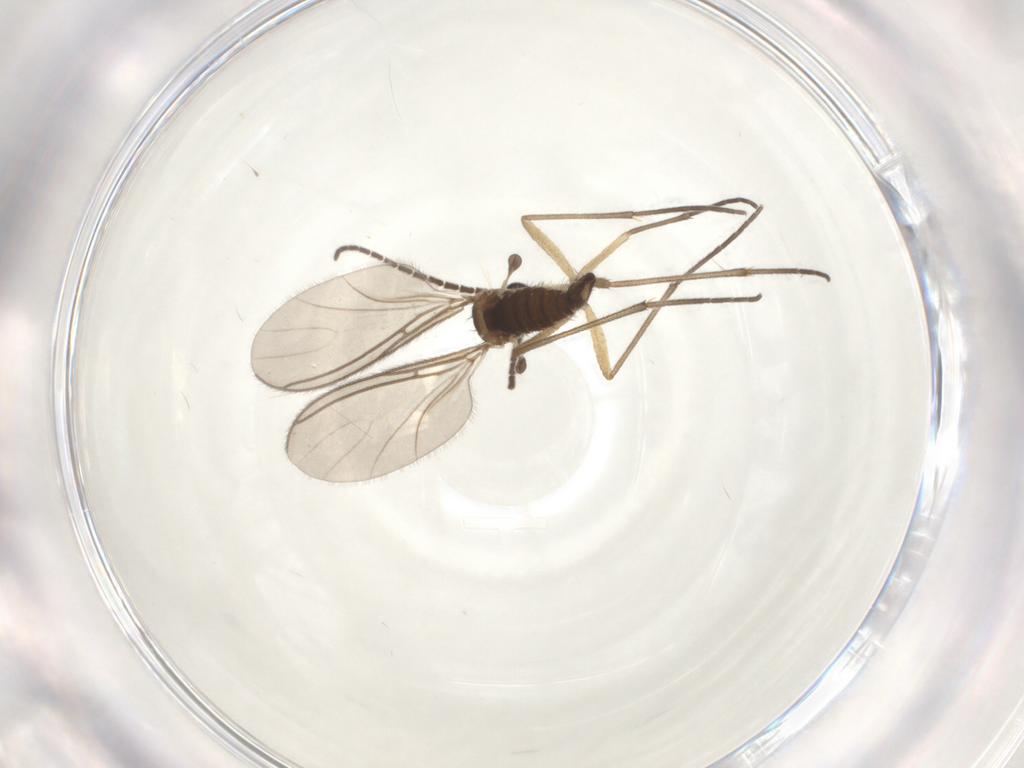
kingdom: Animalia
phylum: Arthropoda
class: Insecta
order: Diptera
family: Sciaridae
